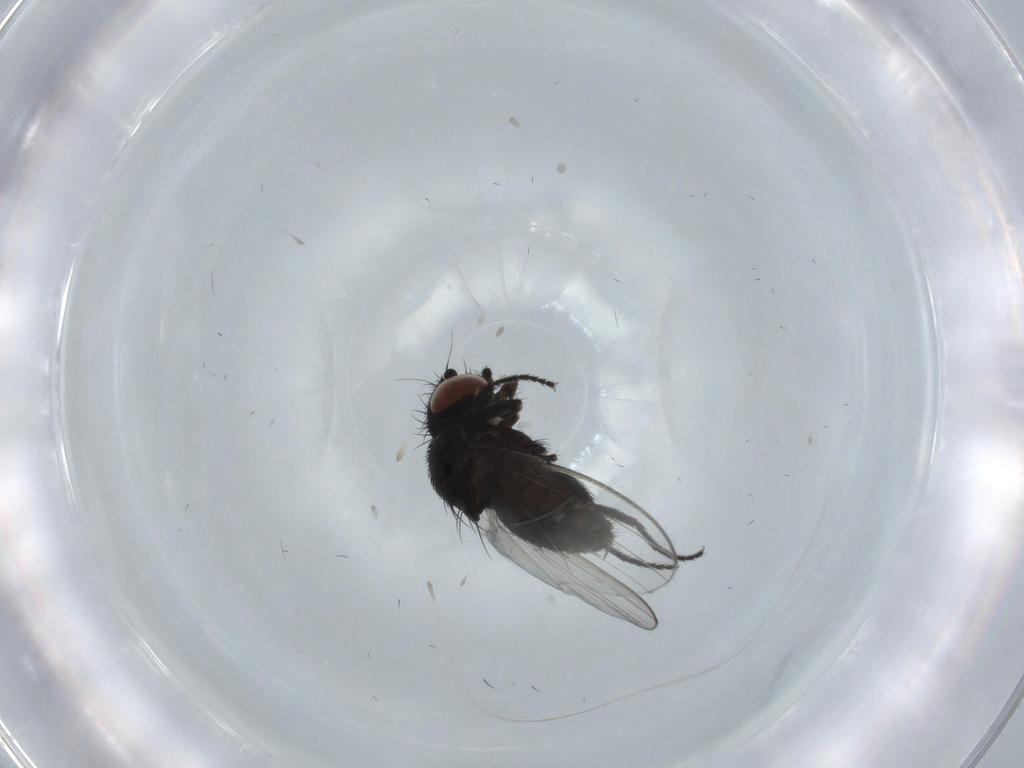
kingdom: Animalia
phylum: Arthropoda
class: Insecta
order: Diptera
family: Milichiidae
